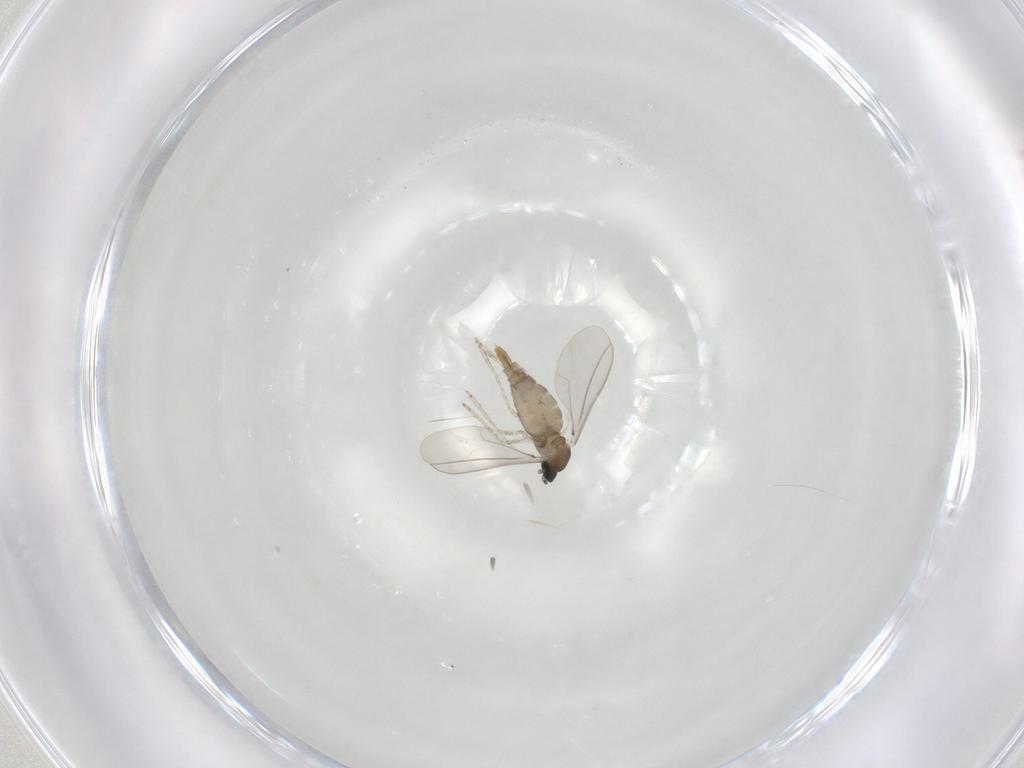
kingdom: Animalia
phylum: Arthropoda
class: Insecta
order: Diptera
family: Cecidomyiidae
